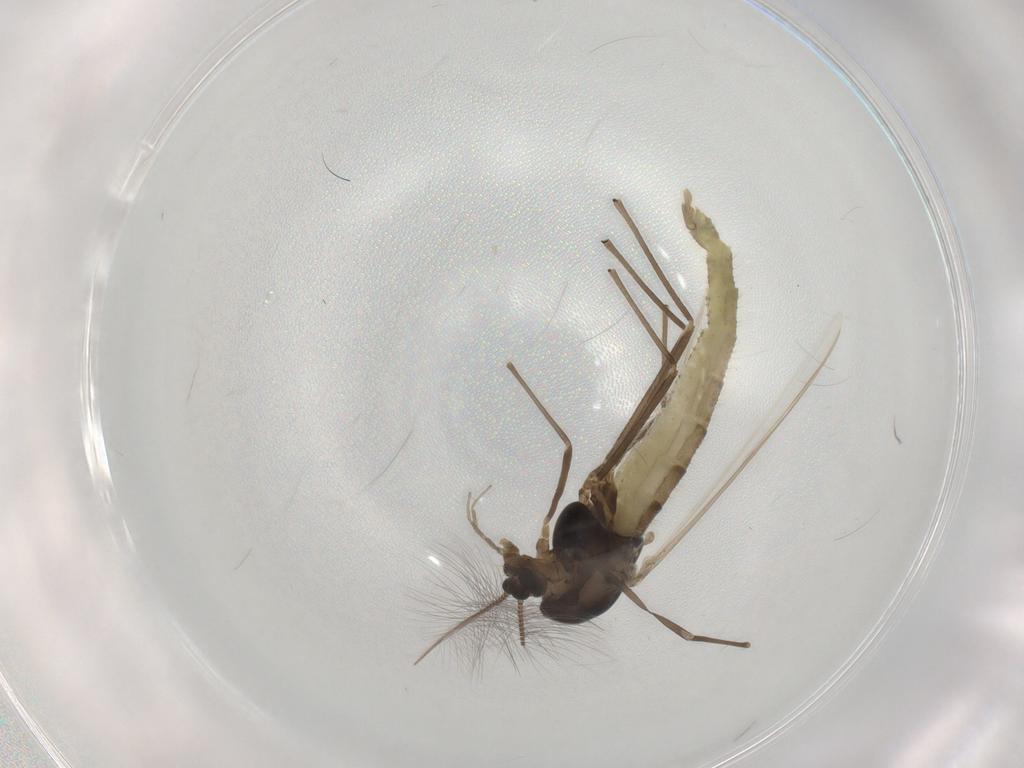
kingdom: Animalia
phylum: Arthropoda
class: Insecta
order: Diptera
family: Chironomidae
